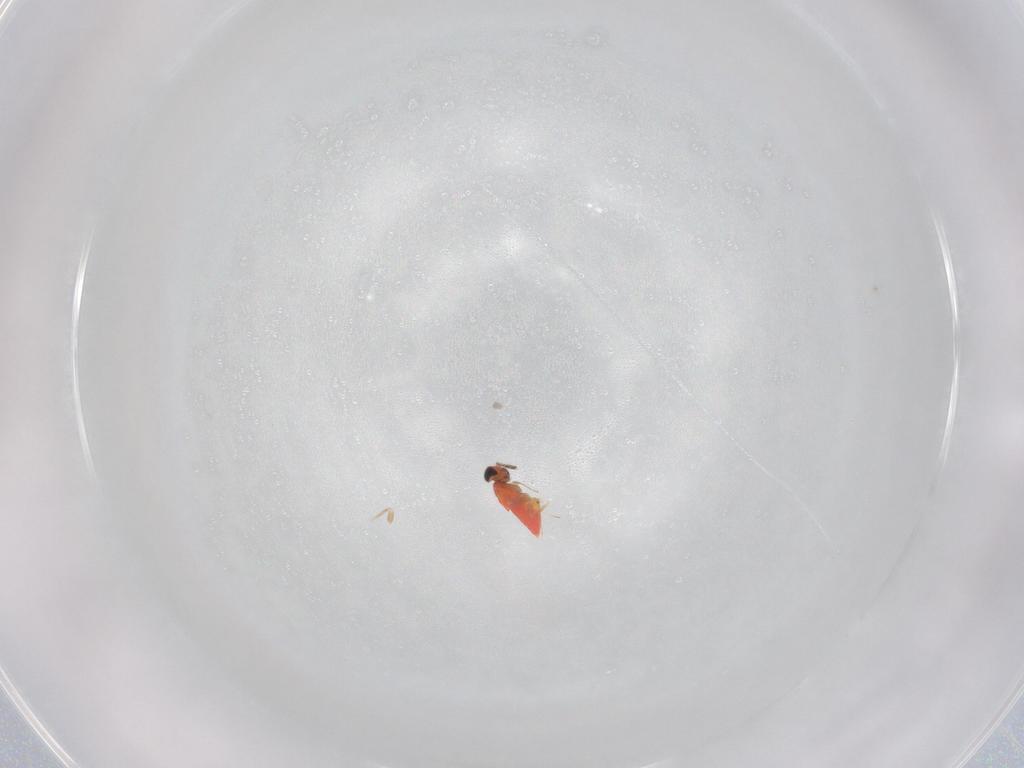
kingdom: Animalia
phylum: Arthropoda
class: Insecta
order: Hymenoptera
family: Trichogrammatidae
